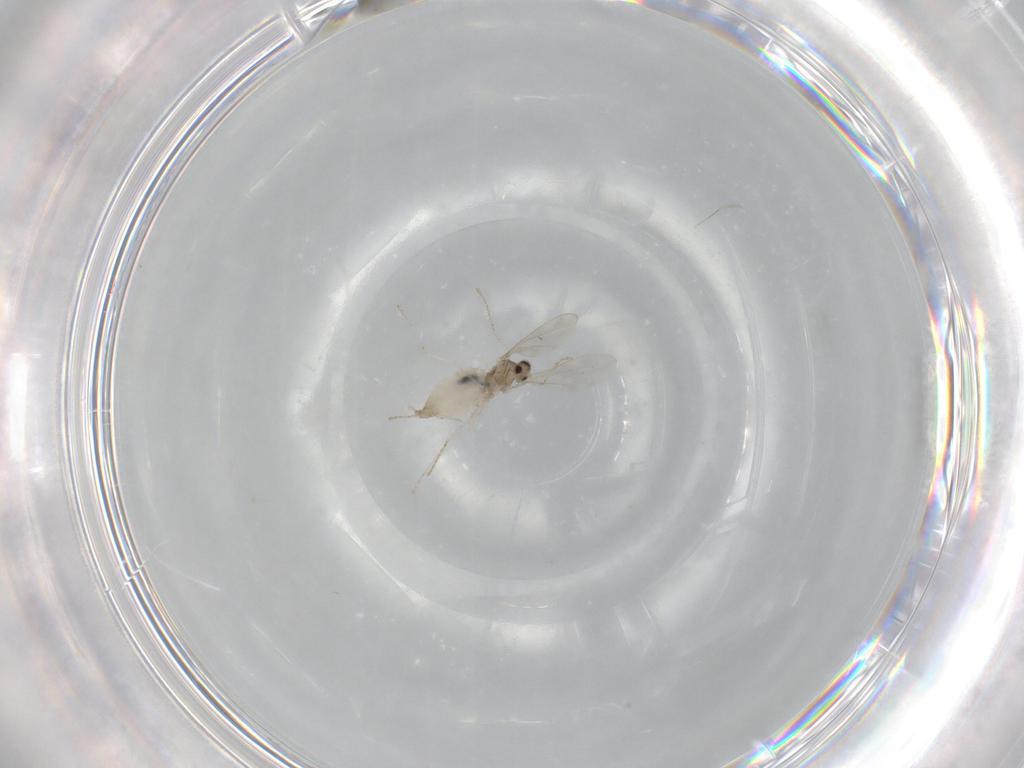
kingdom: Animalia
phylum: Arthropoda
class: Insecta
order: Diptera
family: Cecidomyiidae
